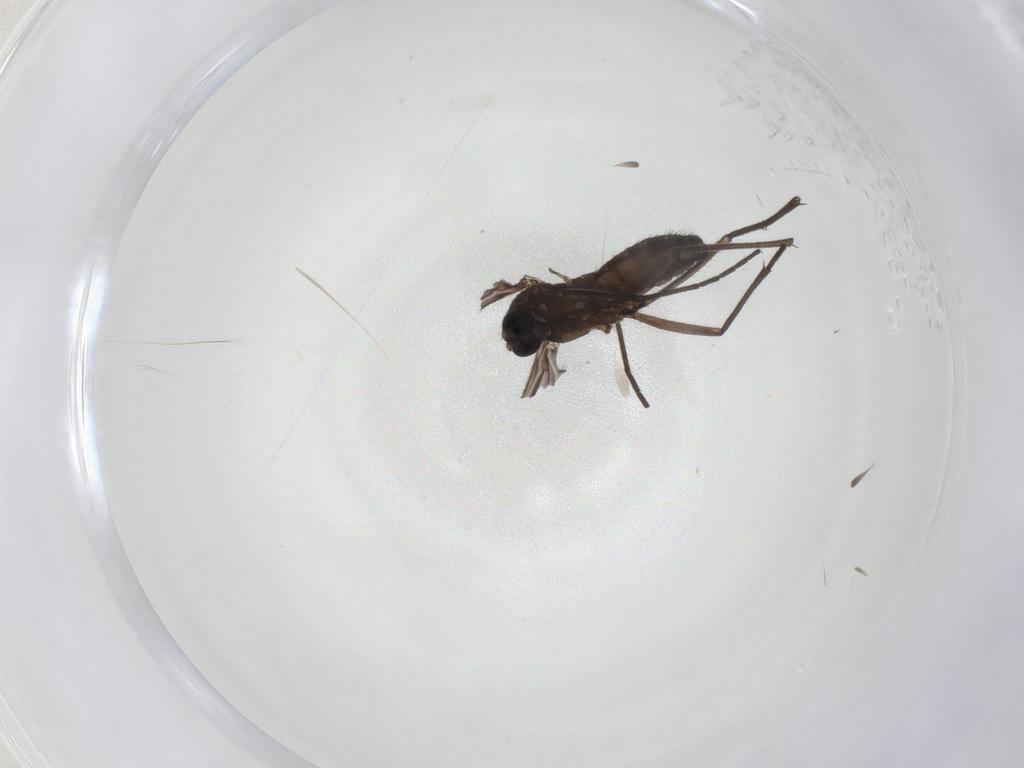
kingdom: Animalia
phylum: Arthropoda
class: Insecta
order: Diptera
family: Sciaridae
